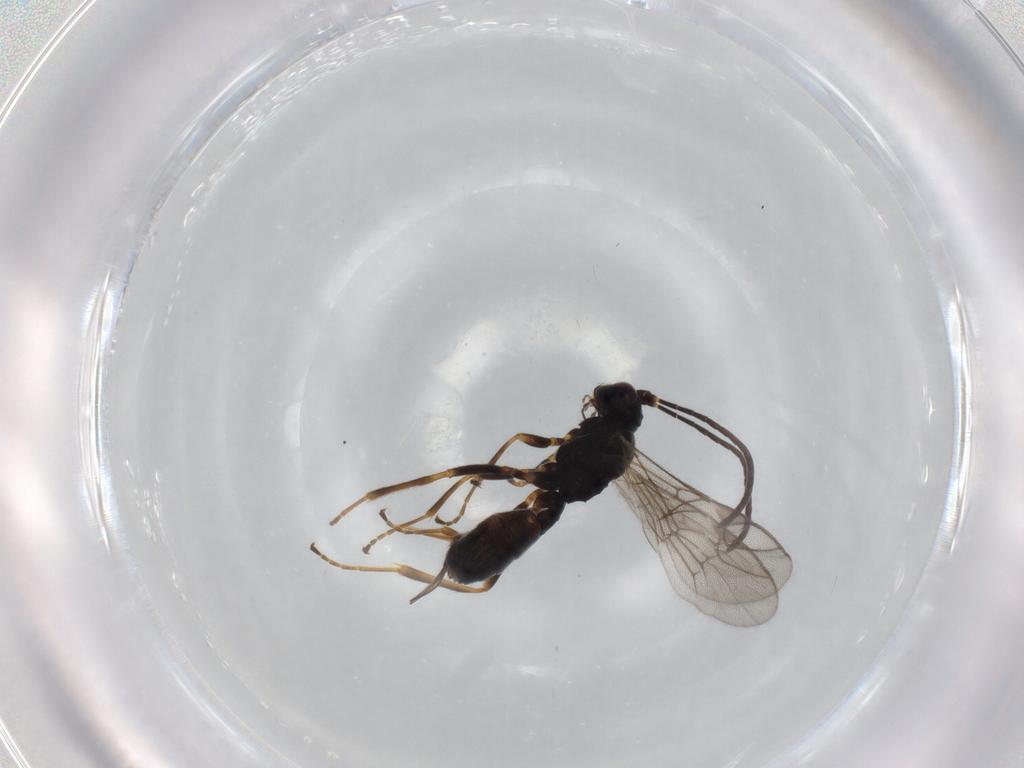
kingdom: Animalia
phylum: Arthropoda
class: Insecta
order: Hymenoptera
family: Ichneumonidae
